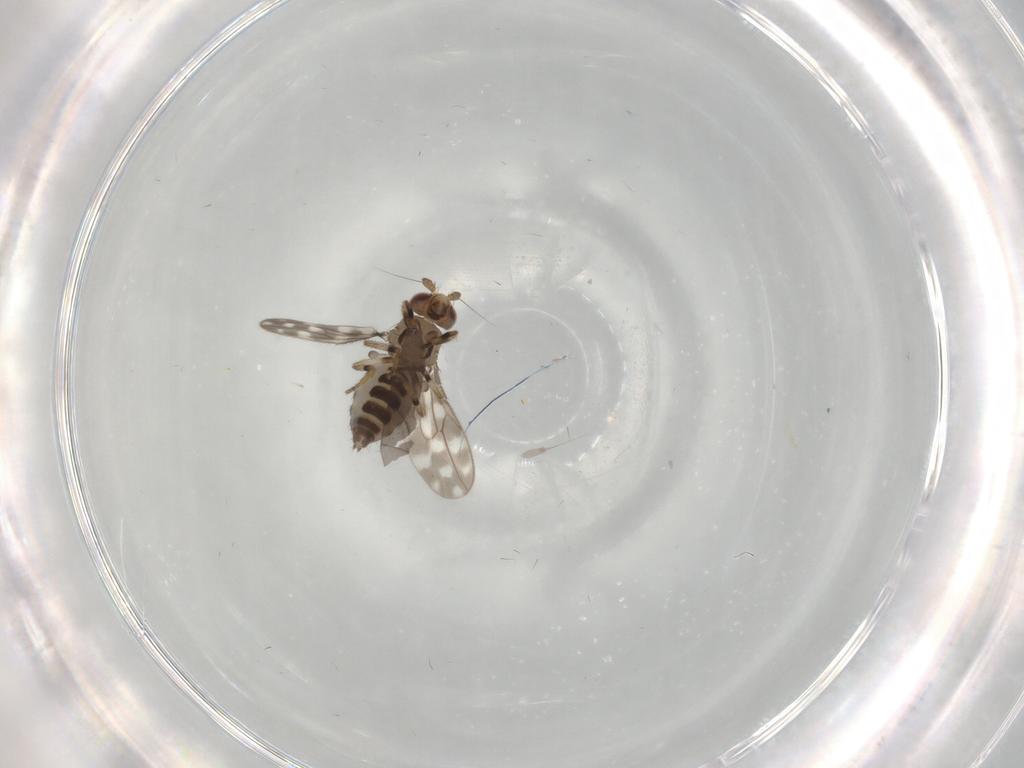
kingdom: Animalia
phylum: Arthropoda
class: Insecta
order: Diptera
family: Sphaeroceridae
